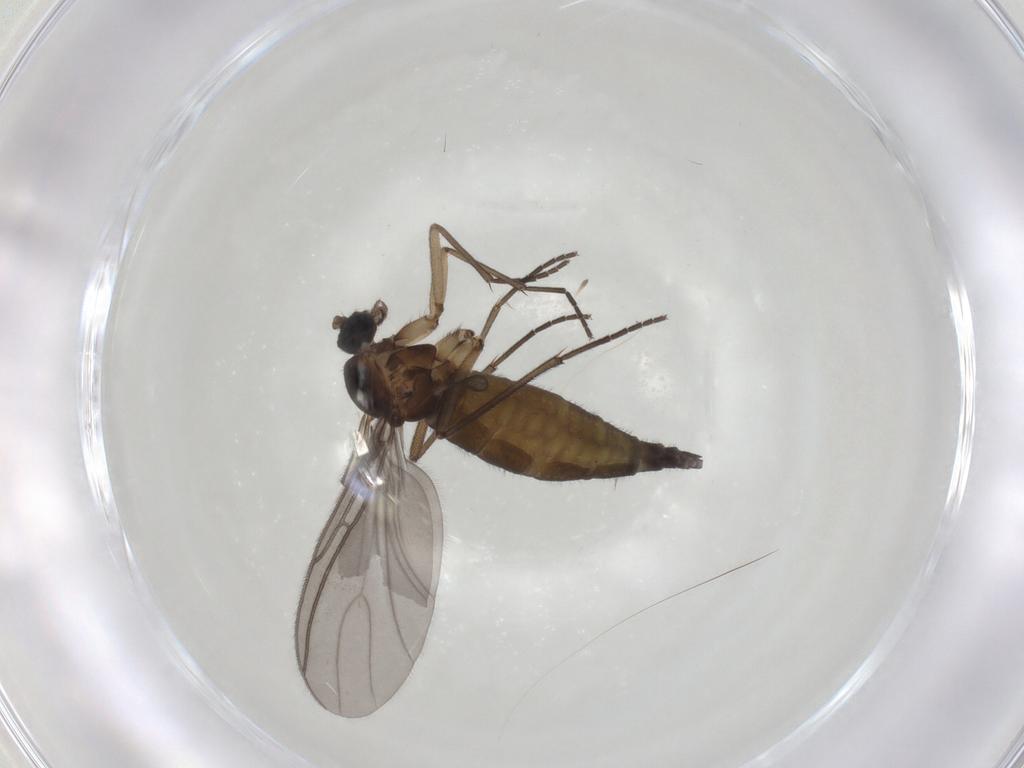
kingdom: Animalia
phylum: Arthropoda
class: Insecta
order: Diptera
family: Sciaridae
